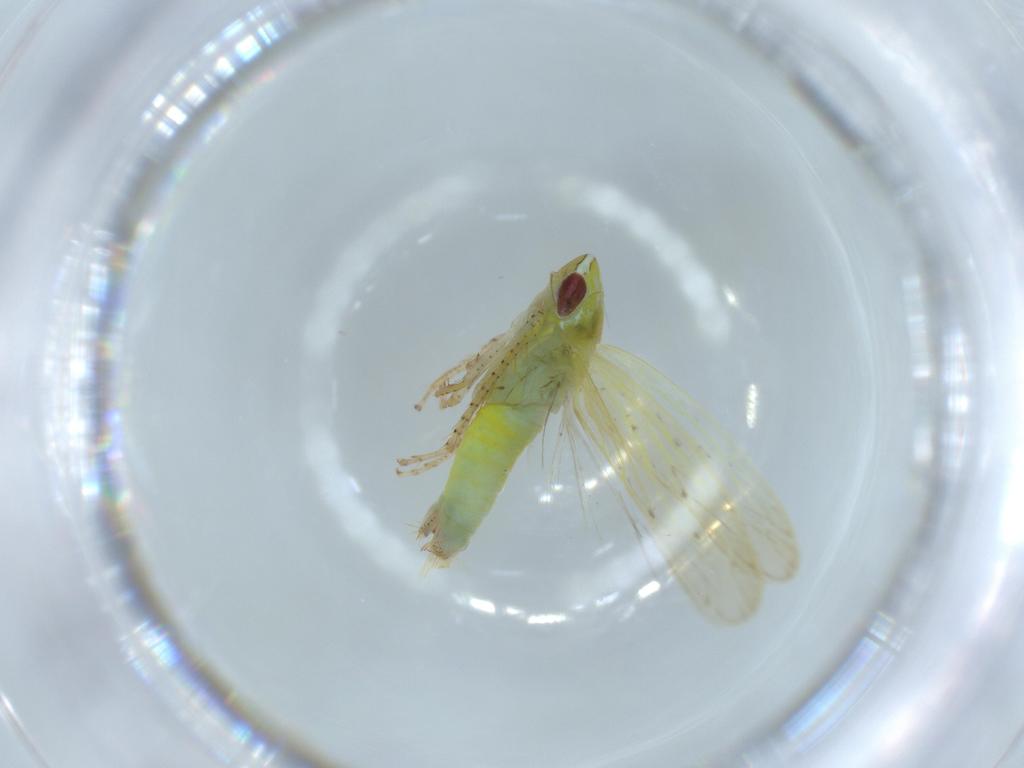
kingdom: Animalia
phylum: Arthropoda
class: Insecta
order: Hemiptera
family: Cicadellidae
